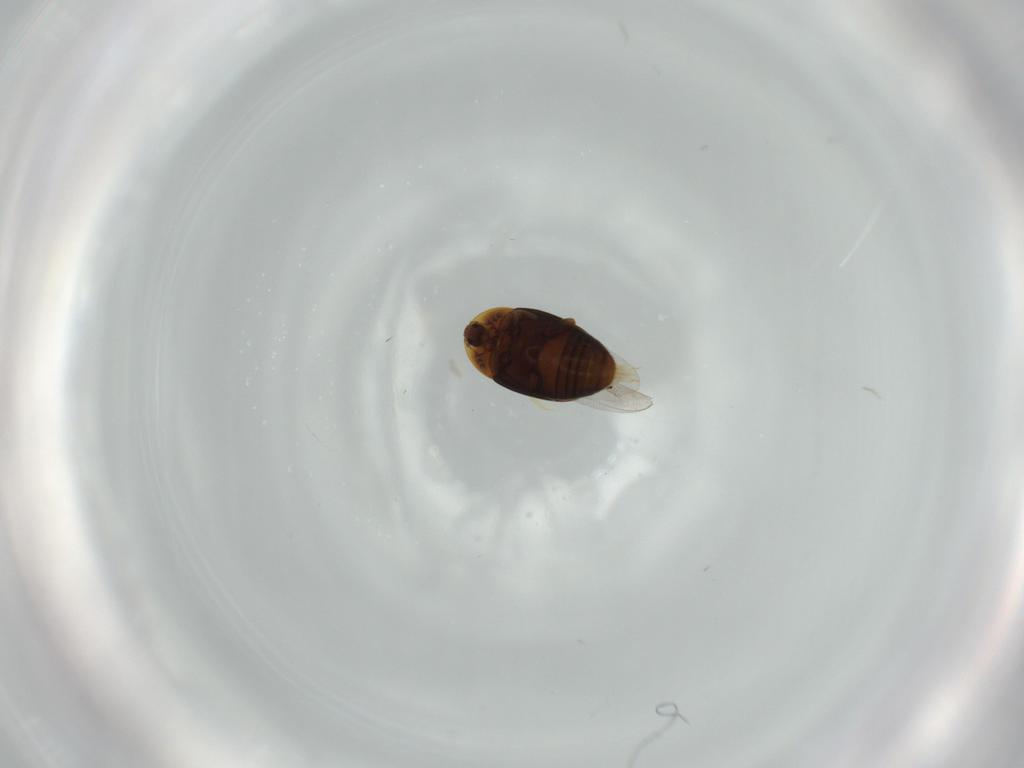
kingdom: Animalia
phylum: Arthropoda
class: Insecta
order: Coleoptera
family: Corylophidae
